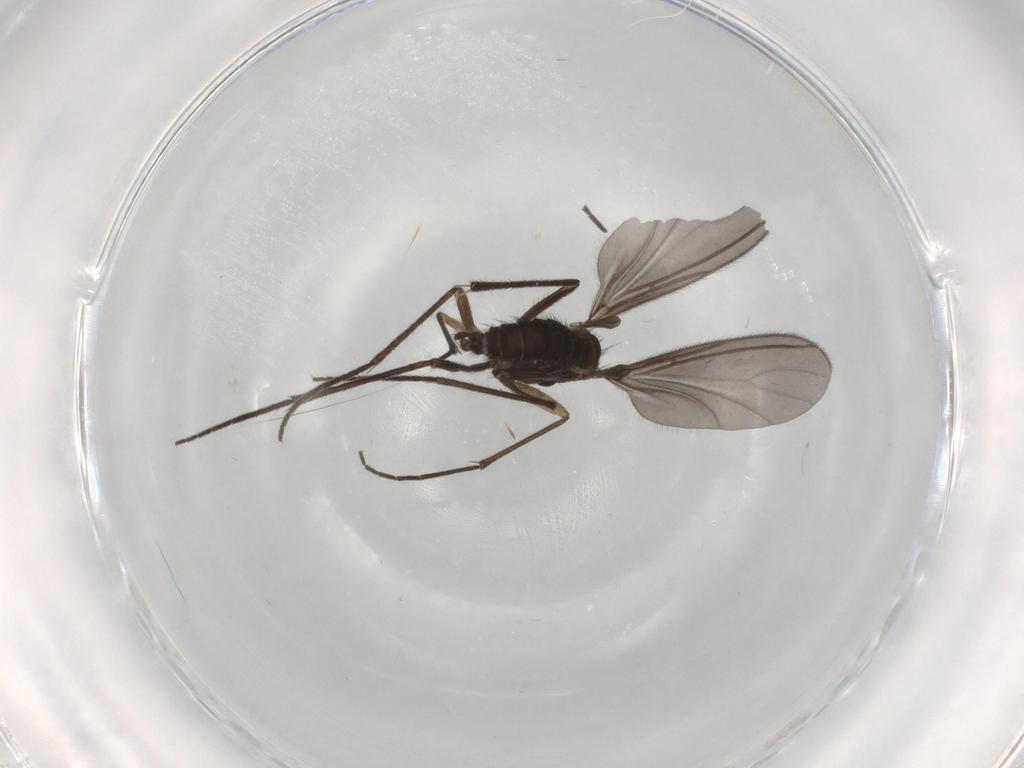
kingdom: Animalia
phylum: Arthropoda
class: Insecta
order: Diptera
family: Sciaridae
